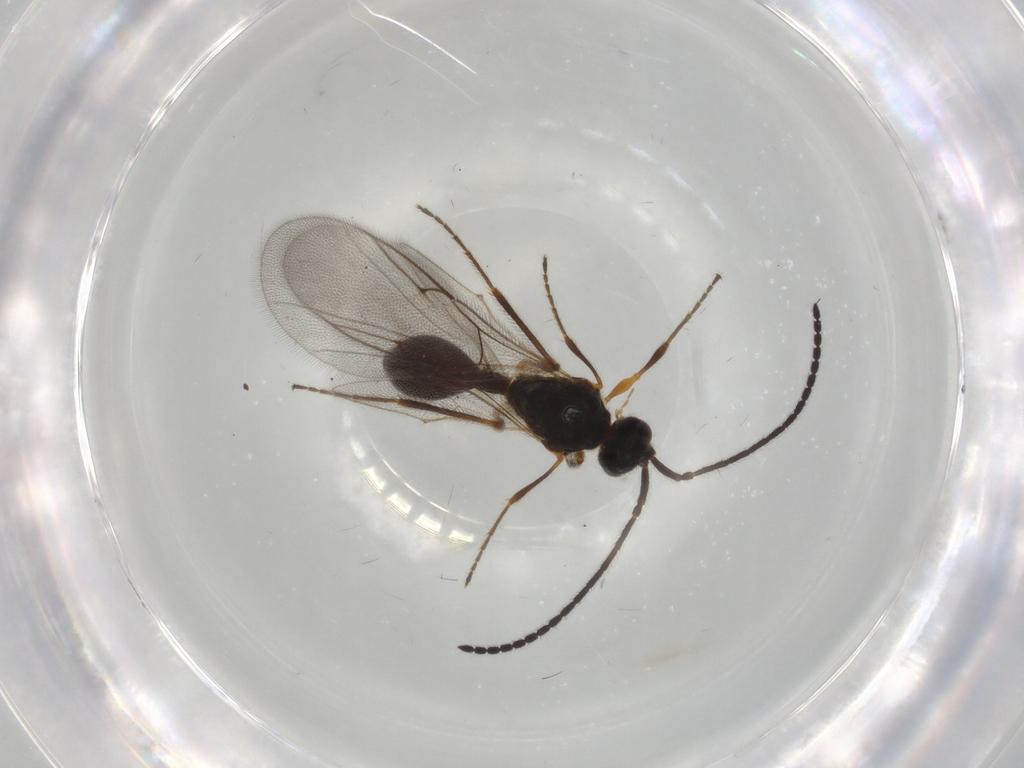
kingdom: Animalia
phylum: Arthropoda
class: Insecta
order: Hymenoptera
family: Diapriidae
